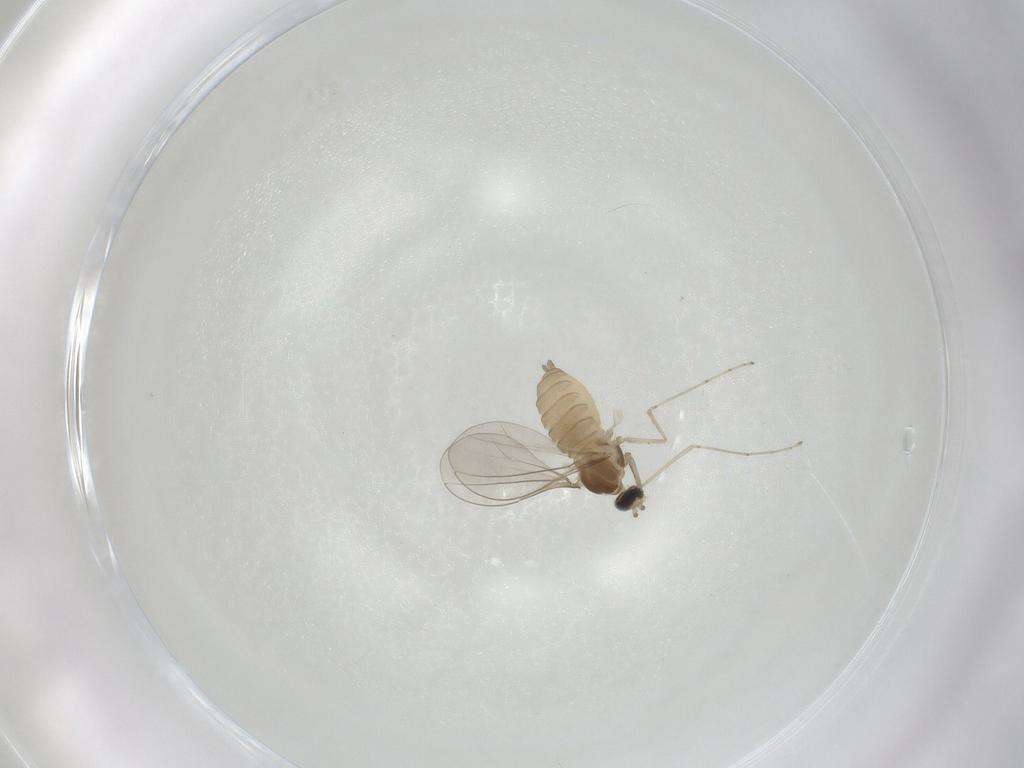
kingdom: Animalia
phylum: Arthropoda
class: Insecta
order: Diptera
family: Cecidomyiidae
